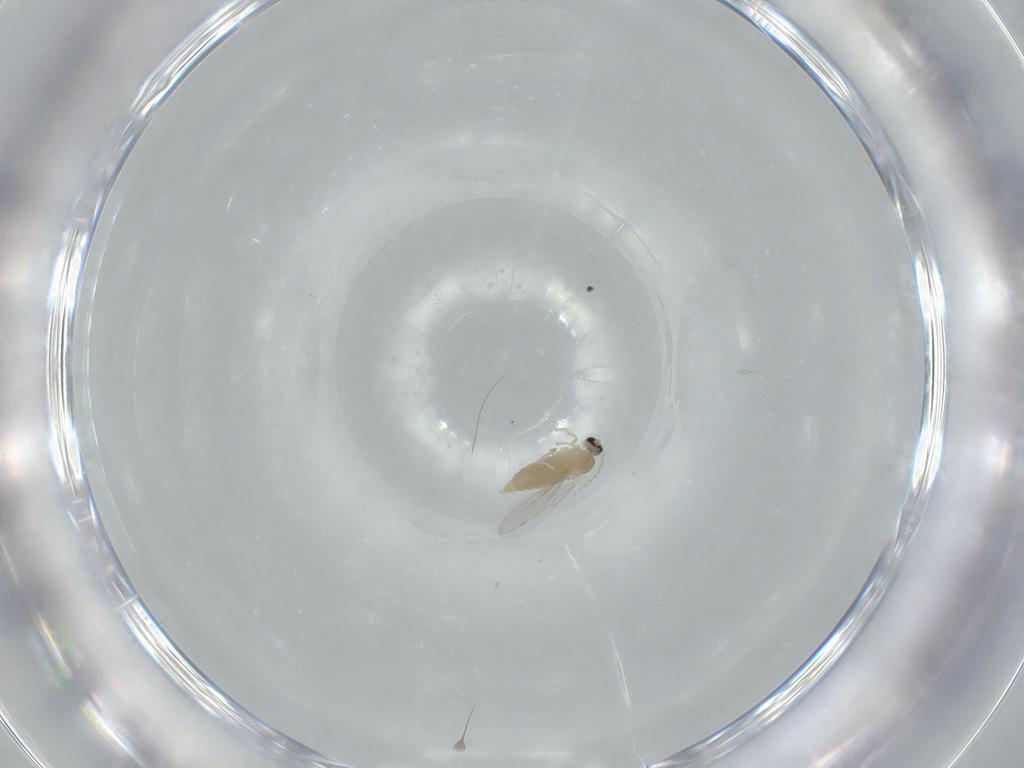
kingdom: Animalia
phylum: Arthropoda
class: Insecta
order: Diptera
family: Cecidomyiidae
